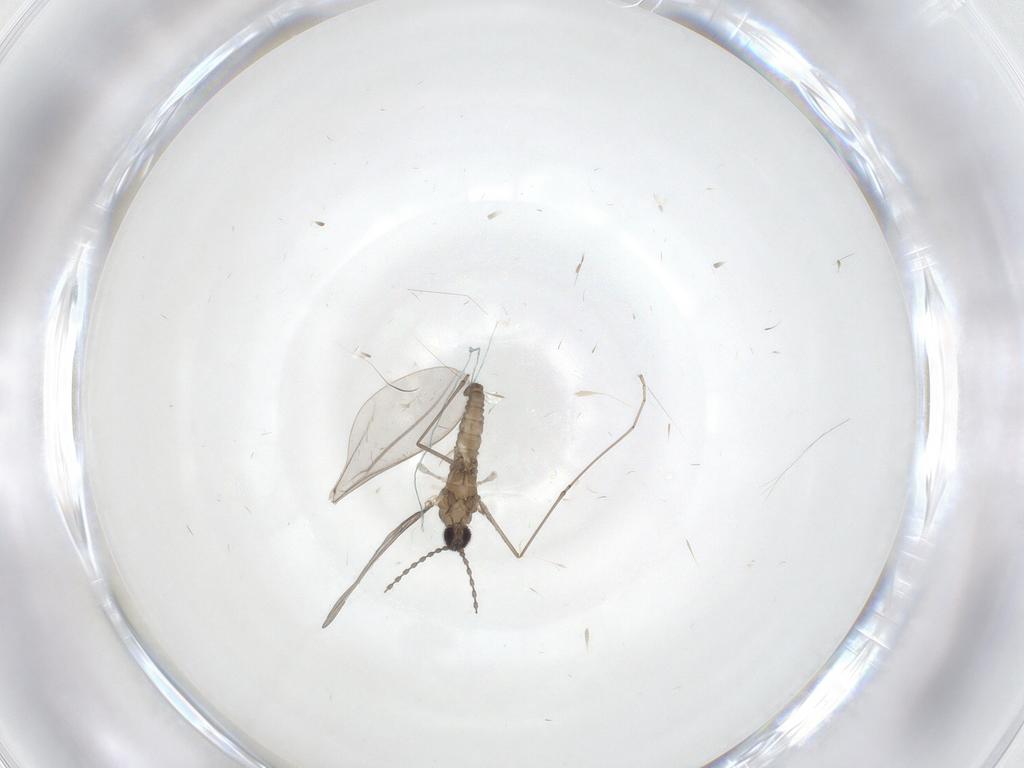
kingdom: Animalia
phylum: Arthropoda
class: Insecta
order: Diptera
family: Cecidomyiidae
